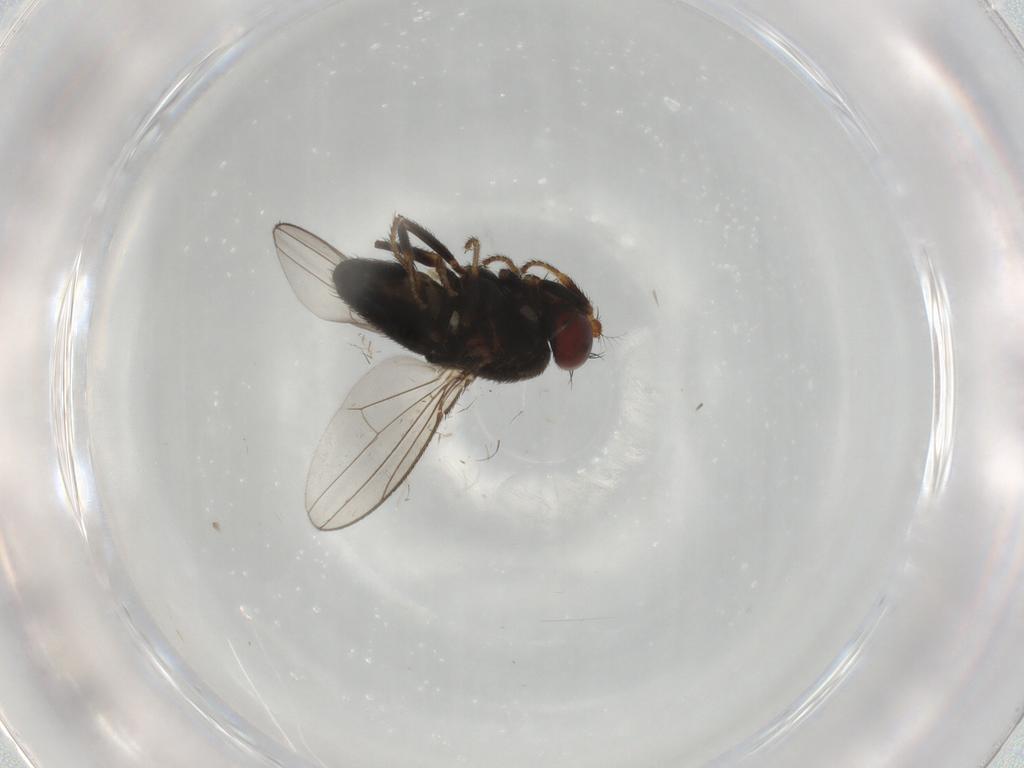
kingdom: Animalia
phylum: Arthropoda
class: Insecta
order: Diptera
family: Ephydridae
